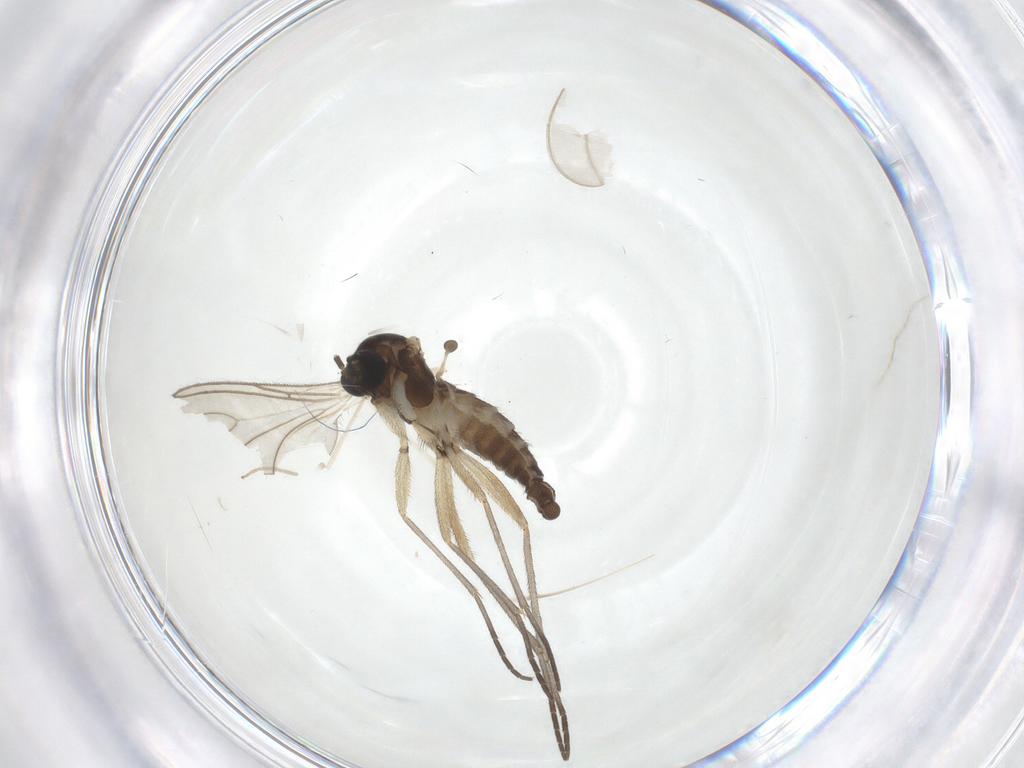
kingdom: Animalia
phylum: Arthropoda
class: Insecta
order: Diptera
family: Sciaridae
